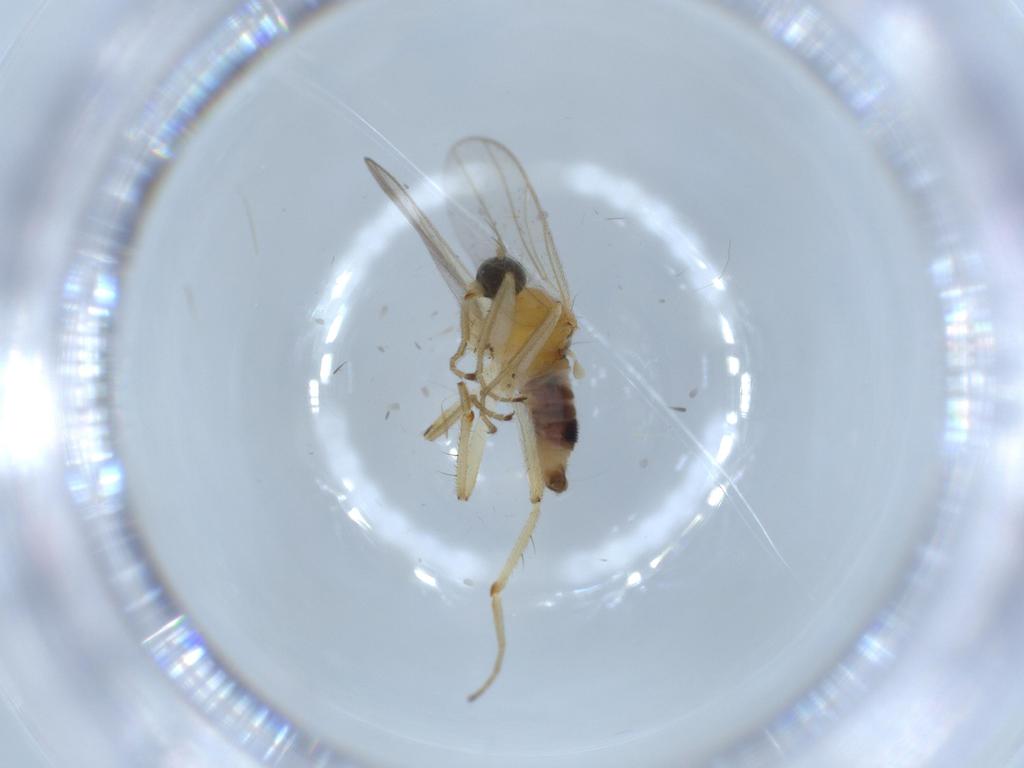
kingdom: Animalia
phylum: Arthropoda
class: Insecta
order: Diptera
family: Hybotidae
